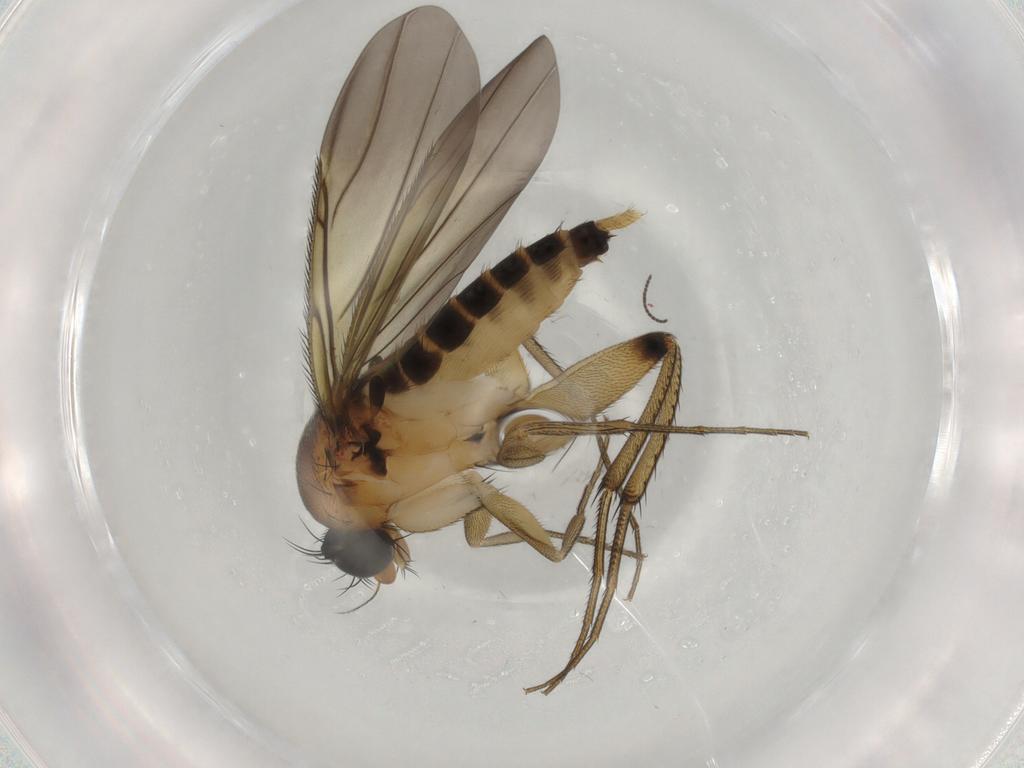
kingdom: Animalia
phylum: Arthropoda
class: Insecta
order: Diptera
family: Phoridae
